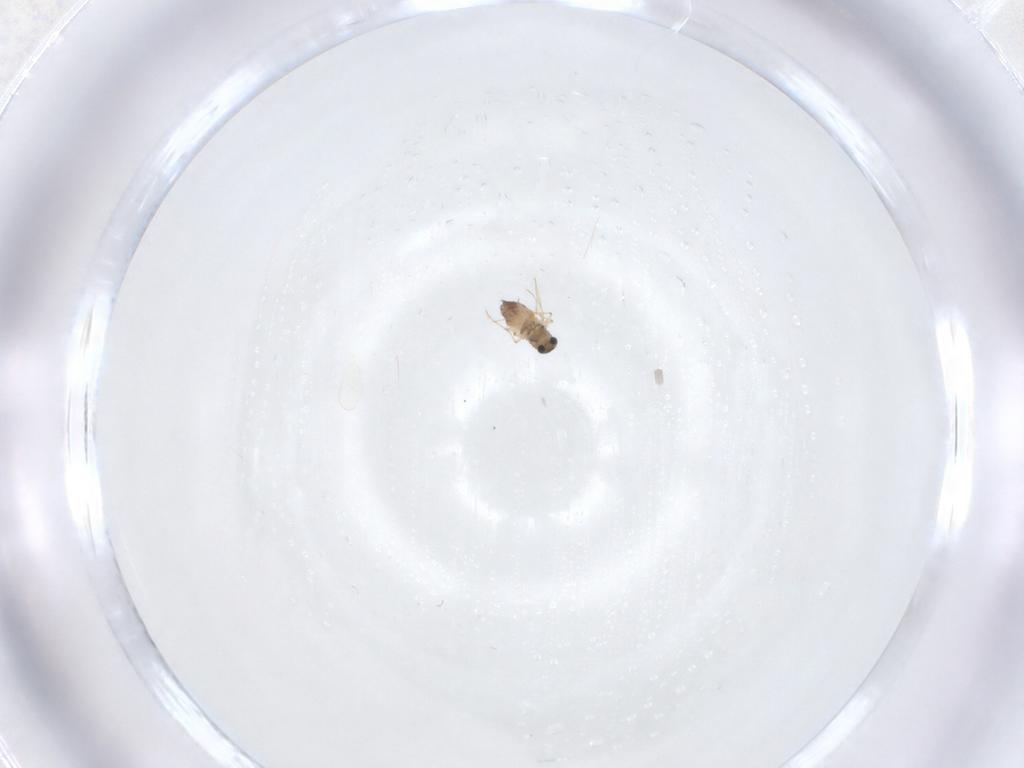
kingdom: Animalia
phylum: Arthropoda
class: Insecta
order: Diptera
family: Chironomidae
